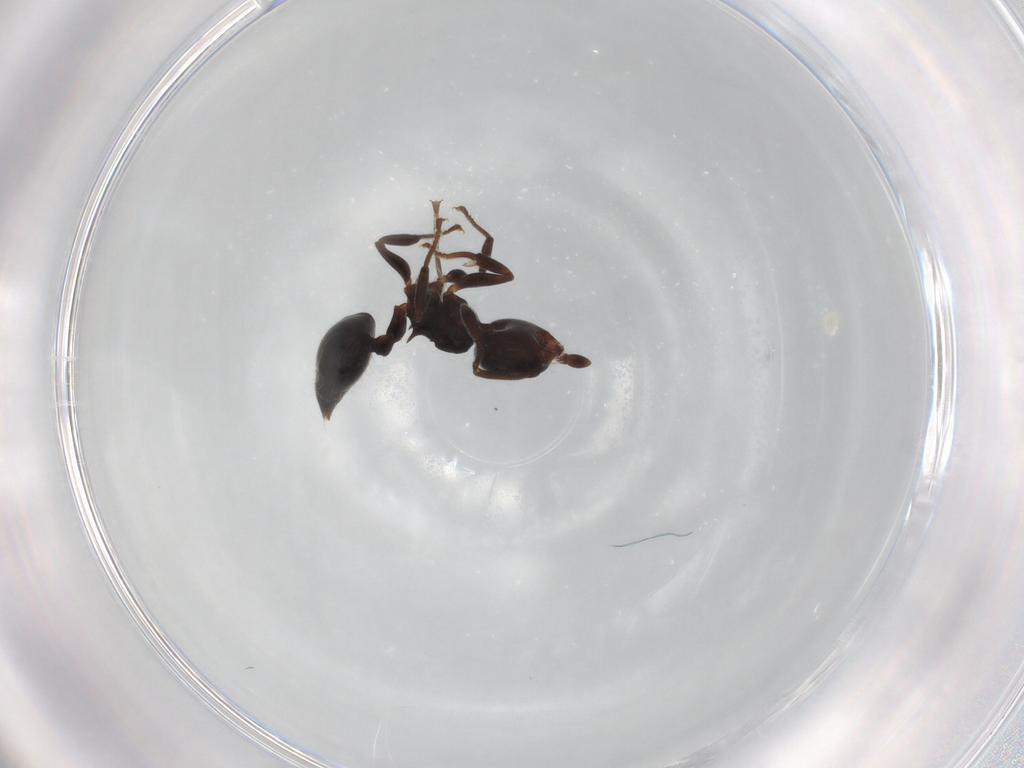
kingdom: Animalia
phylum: Arthropoda
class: Insecta
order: Hymenoptera
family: Formicidae
